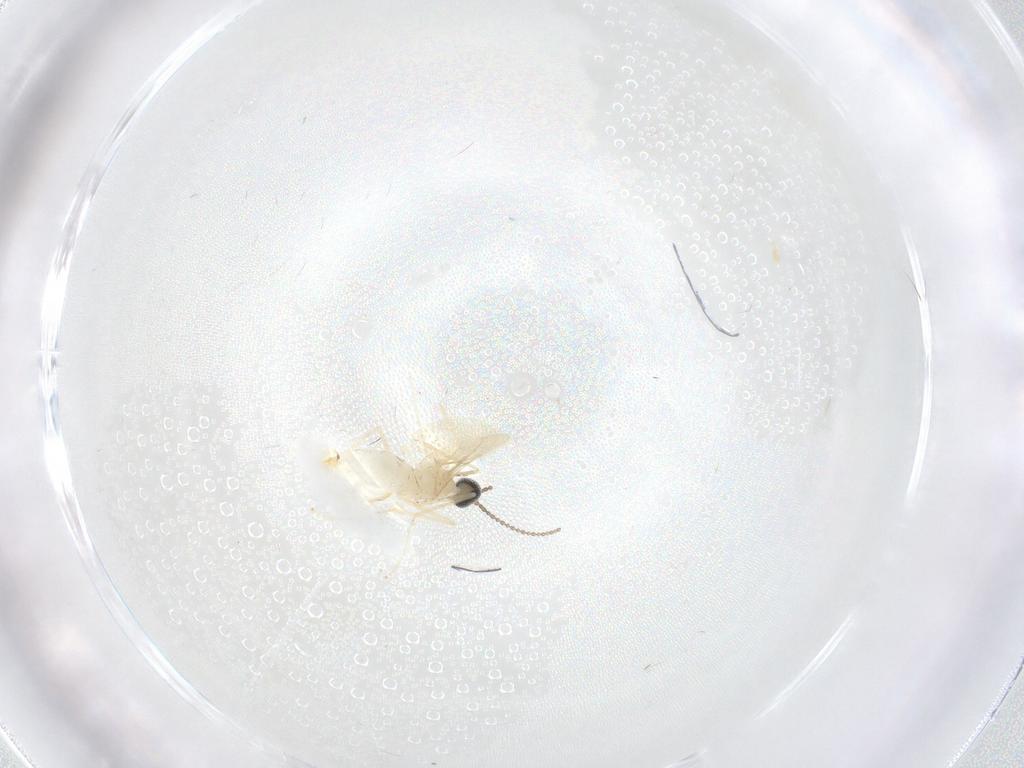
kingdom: Animalia
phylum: Arthropoda
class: Insecta
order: Diptera
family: Cecidomyiidae
